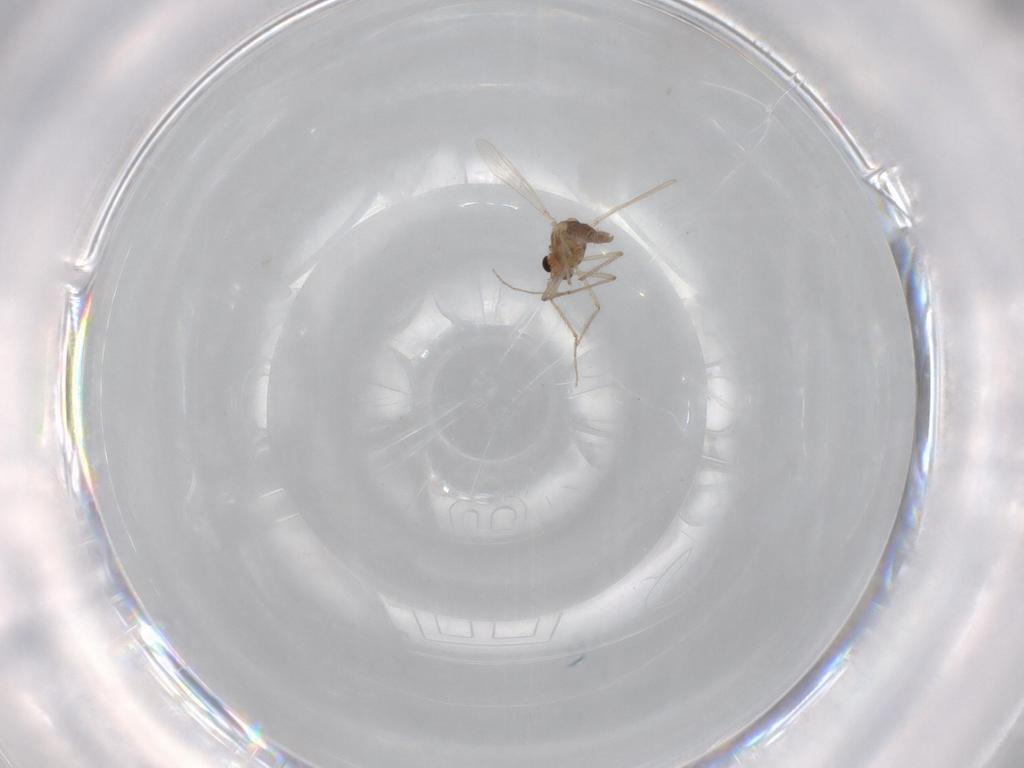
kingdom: Animalia
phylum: Arthropoda
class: Insecta
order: Diptera
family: Chironomidae
